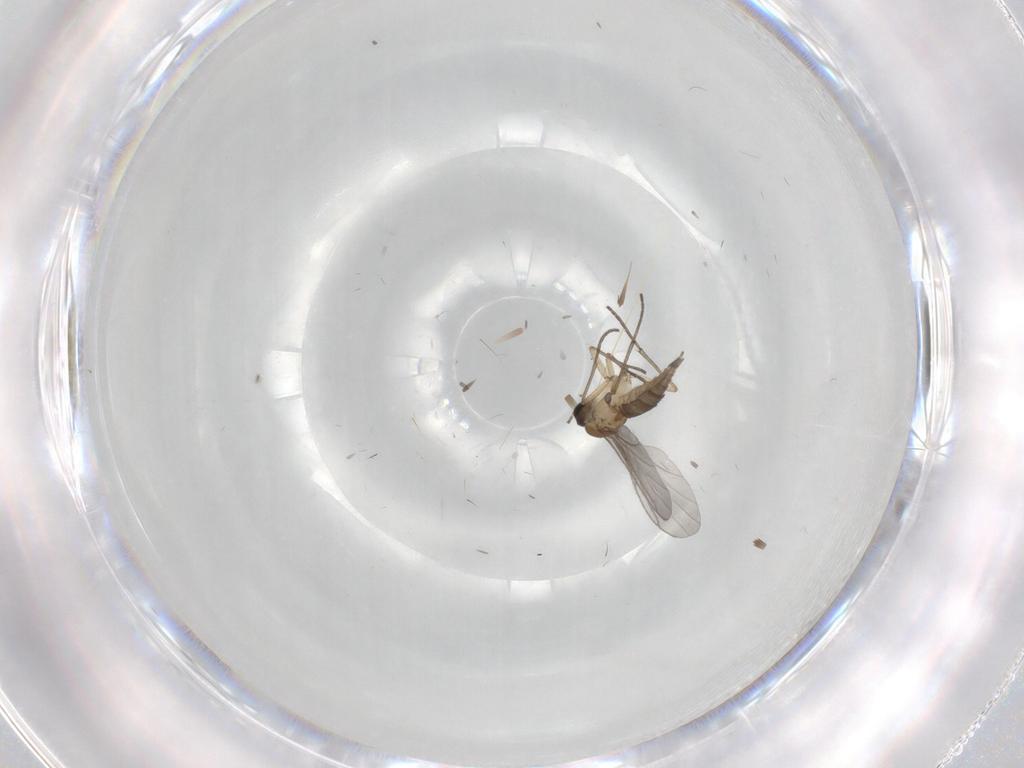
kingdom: Animalia
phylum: Arthropoda
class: Insecta
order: Diptera
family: Sciaridae
